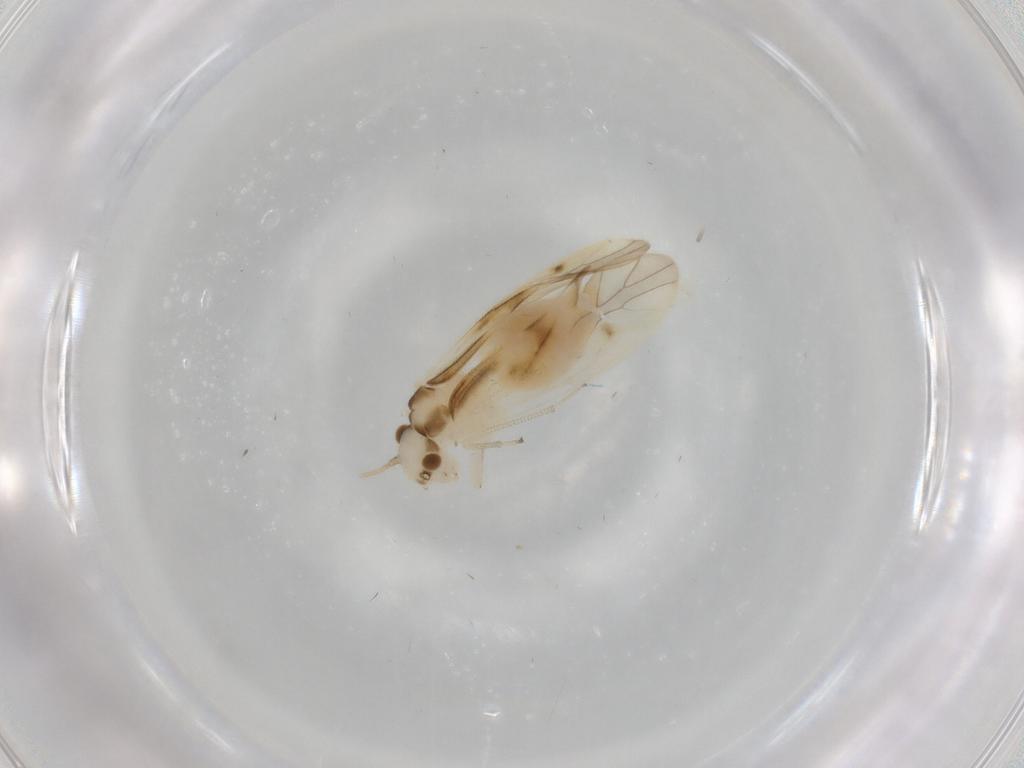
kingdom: Animalia
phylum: Arthropoda
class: Insecta
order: Psocodea
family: Caeciliusidae
